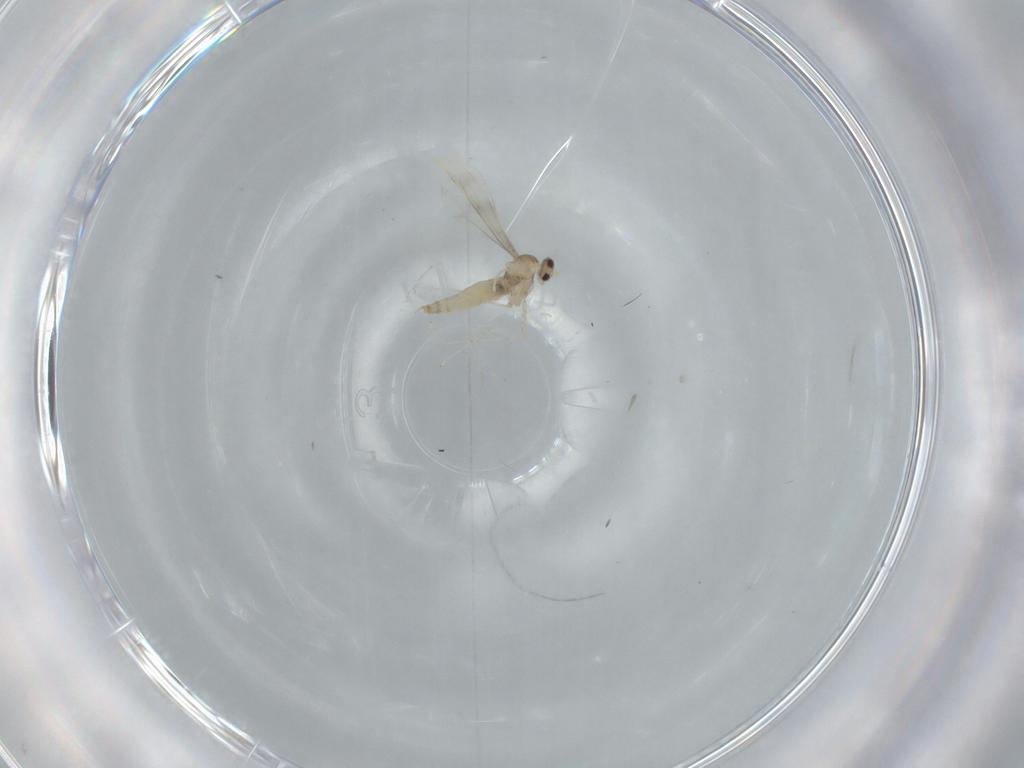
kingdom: Animalia
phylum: Arthropoda
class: Insecta
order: Diptera
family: Cecidomyiidae
